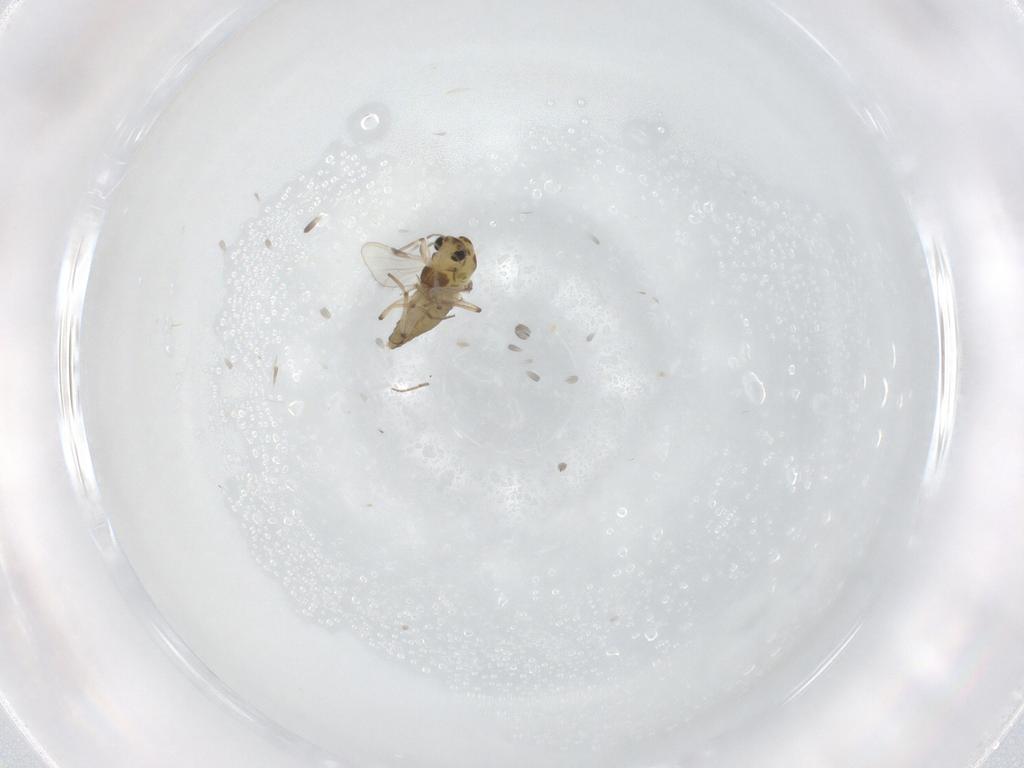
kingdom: Animalia
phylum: Arthropoda
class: Insecta
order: Diptera
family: Chironomidae
